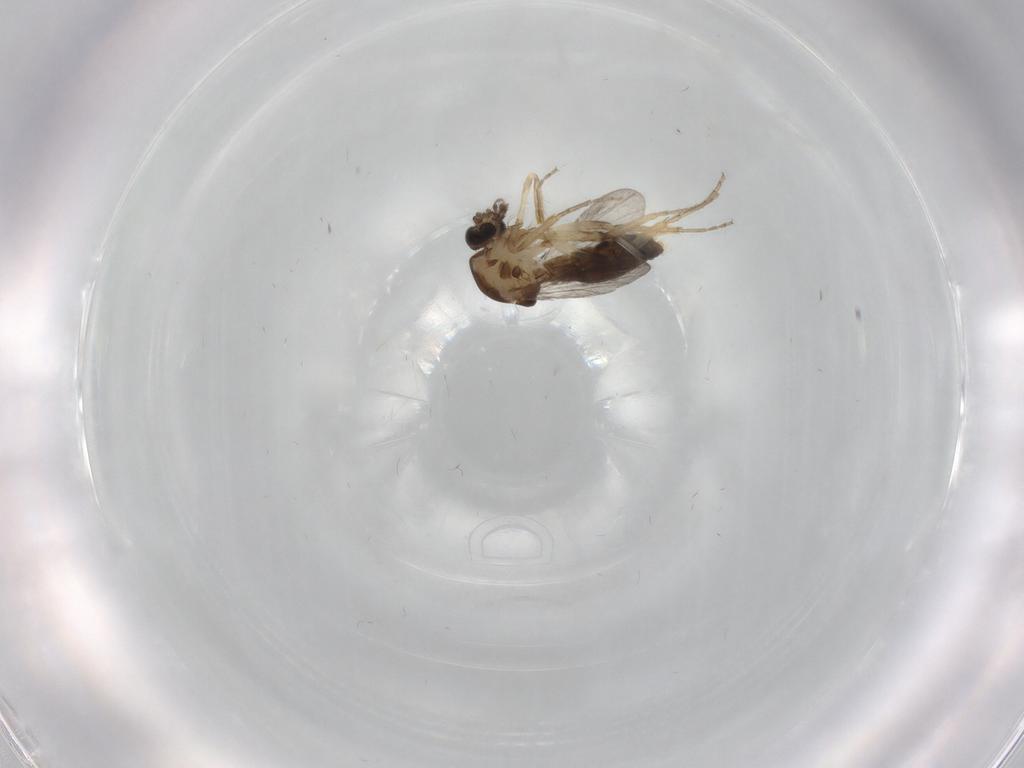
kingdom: Animalia
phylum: Arthropoda
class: Insecta
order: Diptera
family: Ceratopogonidae
